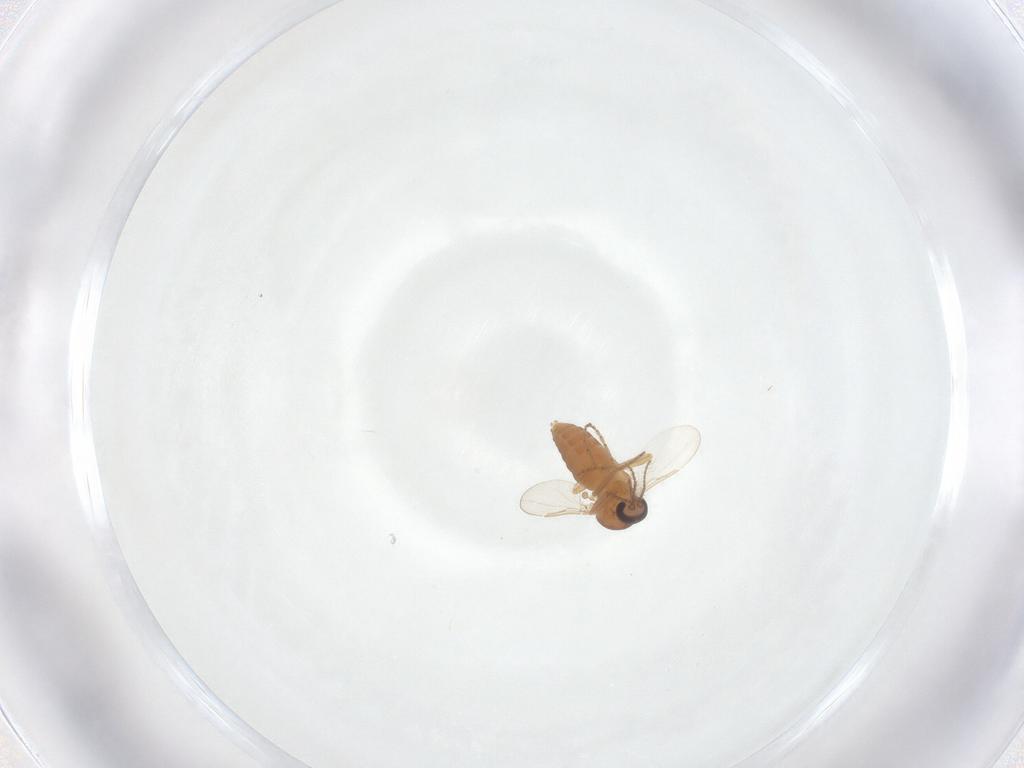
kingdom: Animalia
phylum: Arthropoda
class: Insecta
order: Diptera
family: Ceratopogonidae
